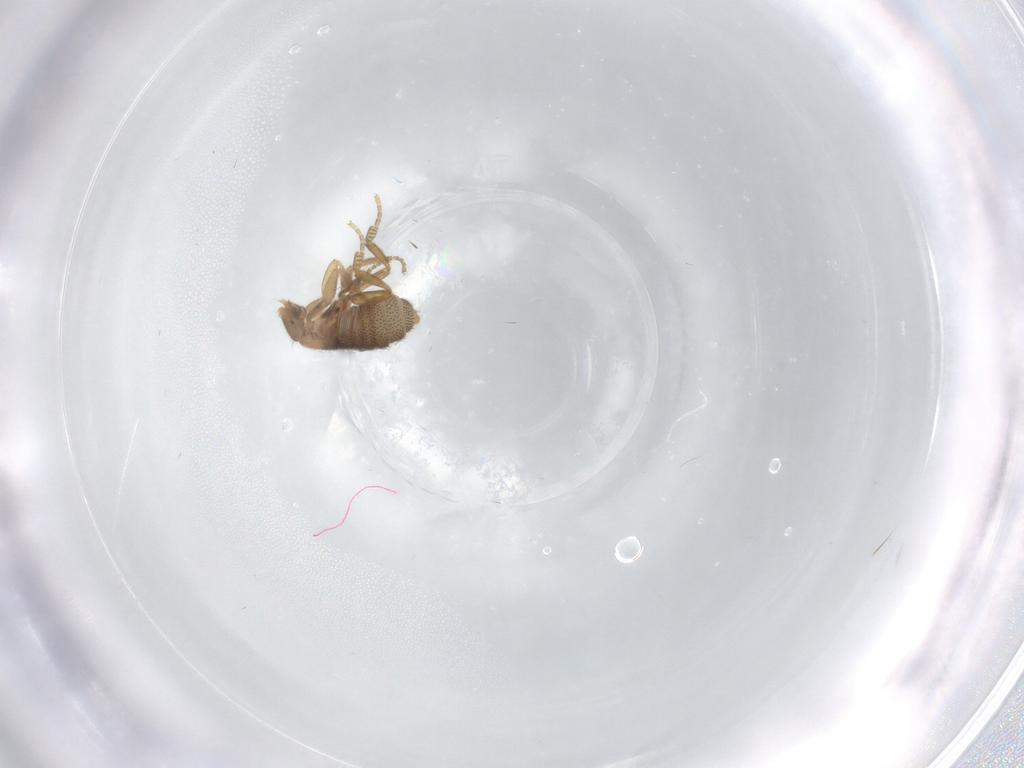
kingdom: Animalia
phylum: Arthropoda
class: Insecta
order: Diptera
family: Phoridae
